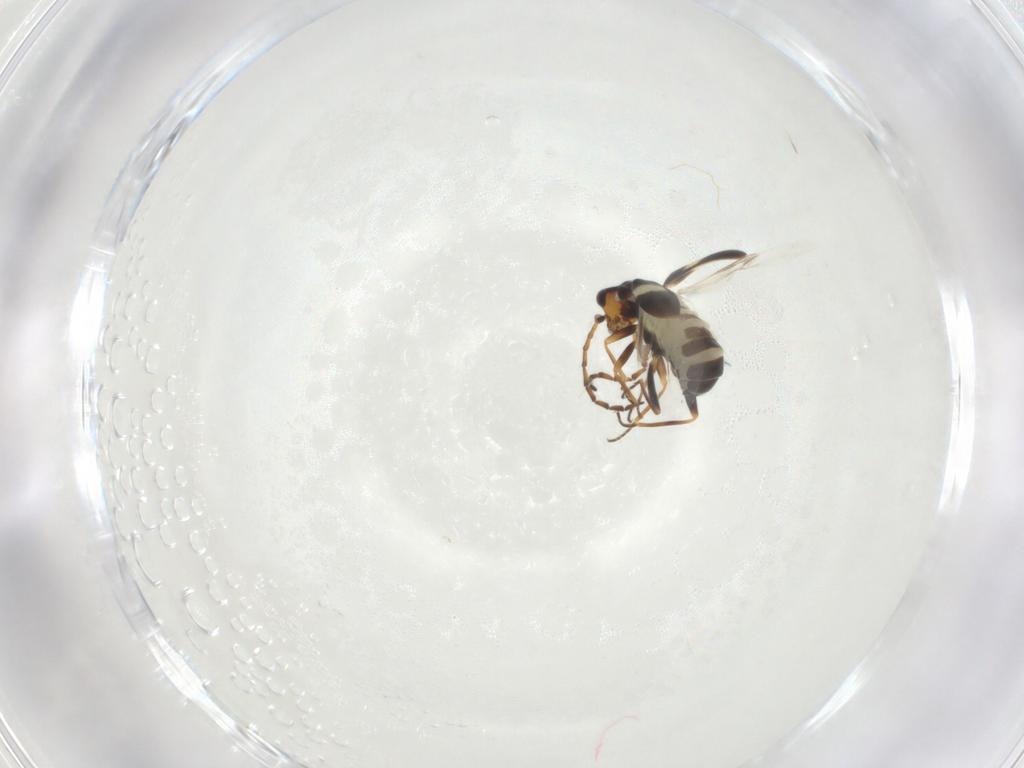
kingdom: Animalia
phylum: Arthropoda
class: Insecta
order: Coleoptera
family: Melyridae
